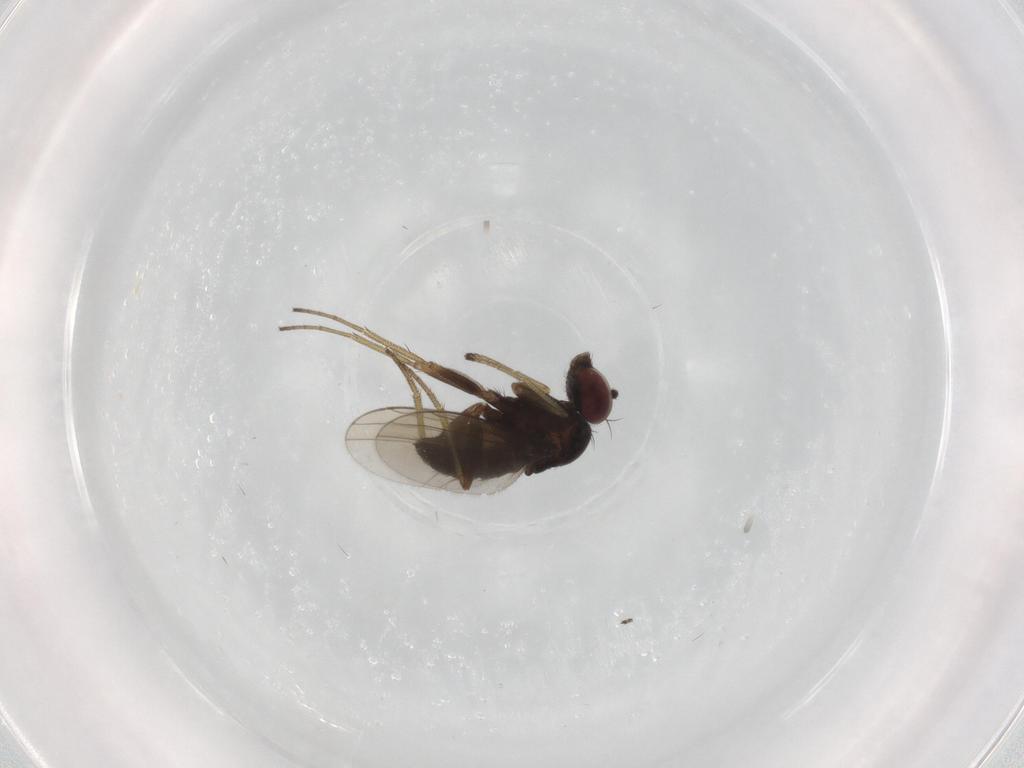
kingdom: Animalia
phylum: Arthropoda
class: Insecta
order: Diptera
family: Dolichopodidae
